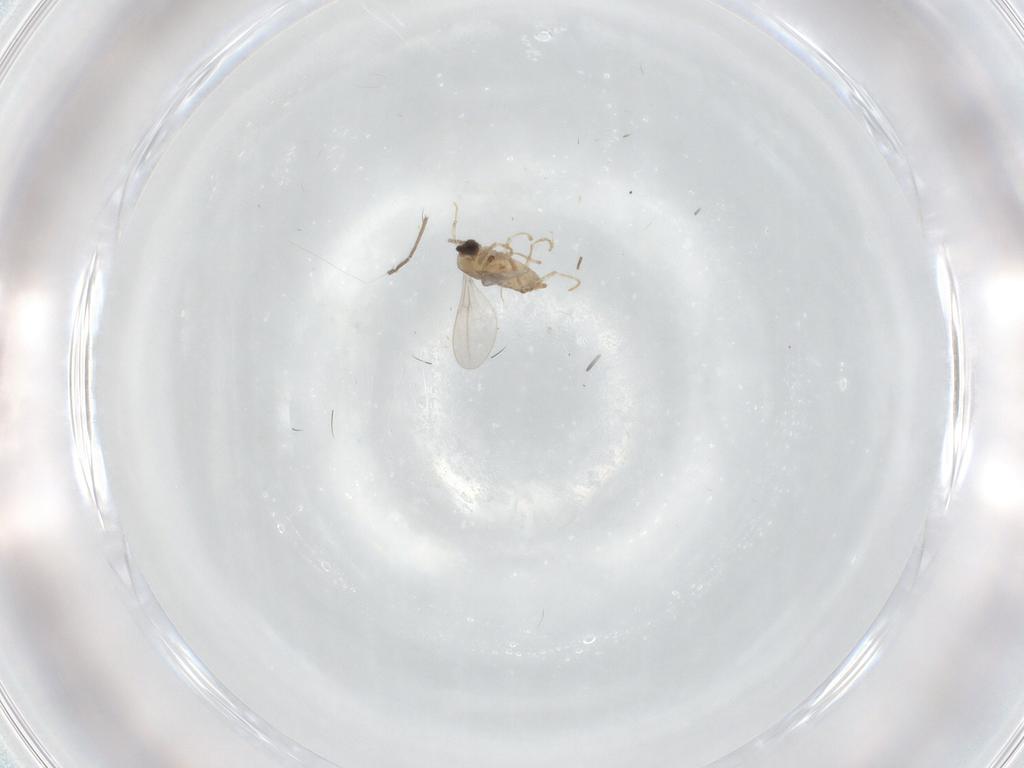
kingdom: Animalia
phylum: Arthropoda
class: Insecta
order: Diptera
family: Cecidomyiidae
